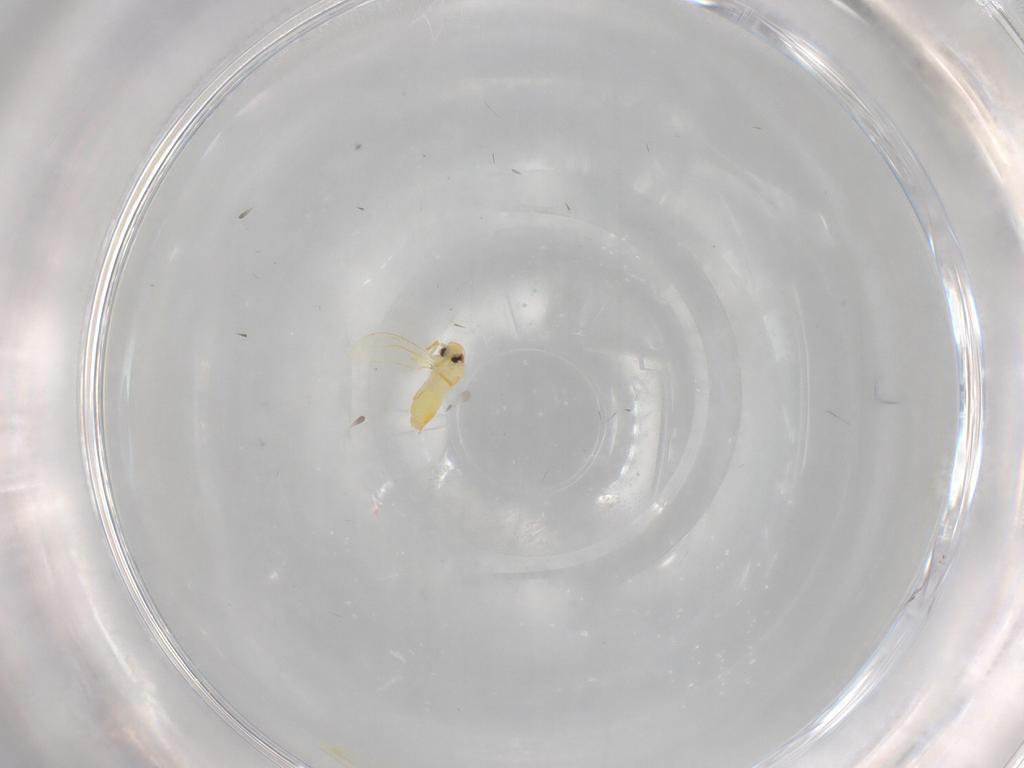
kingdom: Animalia
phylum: Arthropoda
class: Insecta
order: Hemiptera
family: Aleyrodidae
